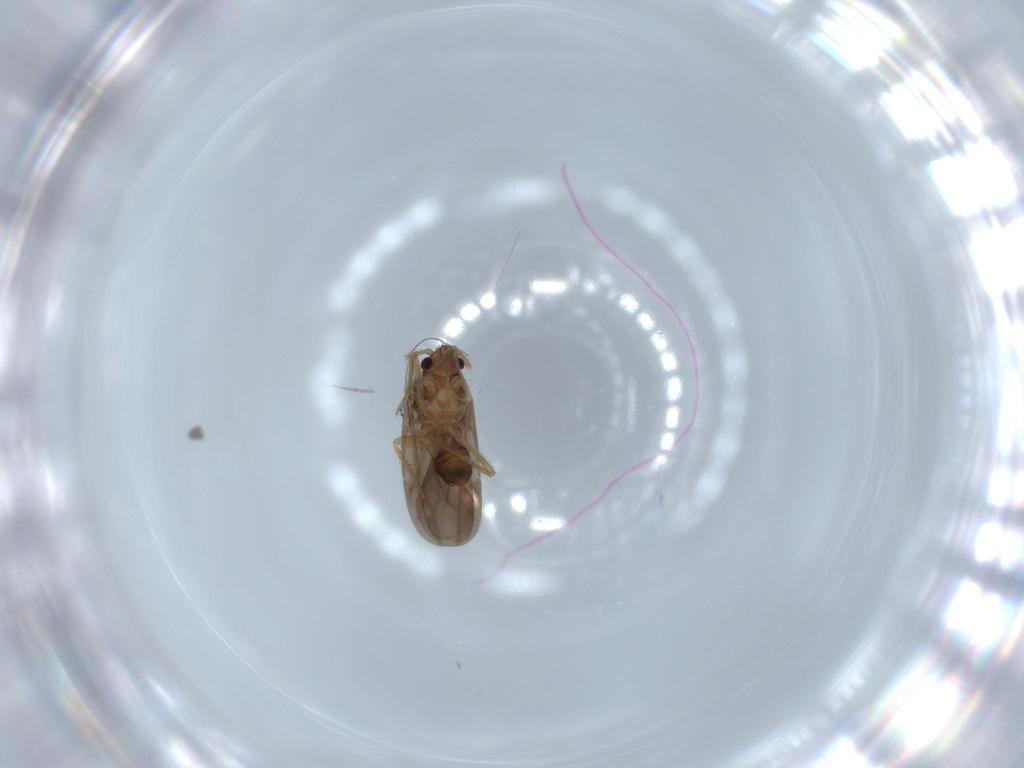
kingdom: Animalia
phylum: Arthropoda
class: Insecta
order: Hemiptera
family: Ceratocombidae
